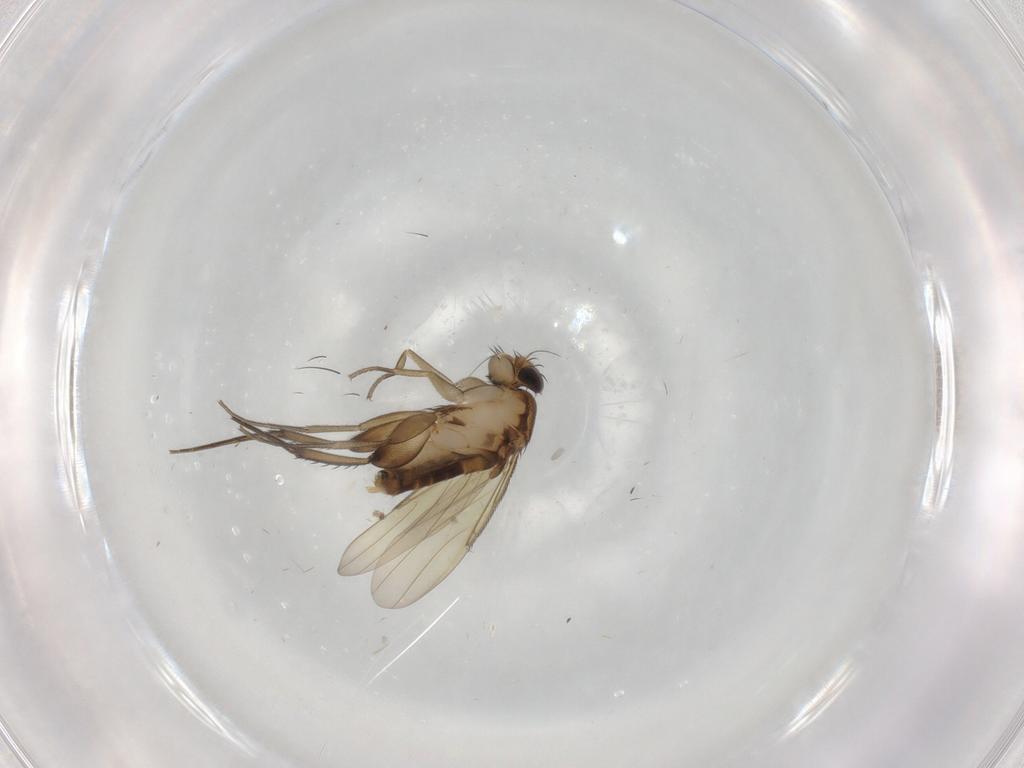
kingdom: Animalia
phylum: Arthropoda
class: Insecta
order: Diptera
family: Phoridae
